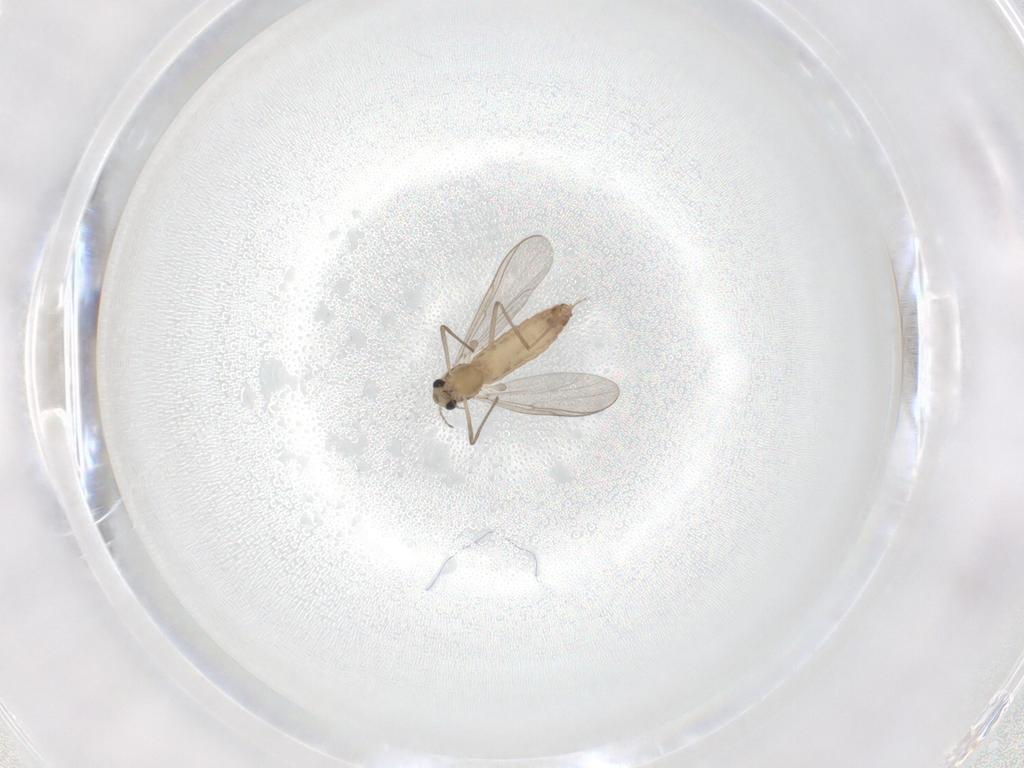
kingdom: Animalia
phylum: Arthropoda
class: Insecta
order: Diptera
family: Chironomidae
